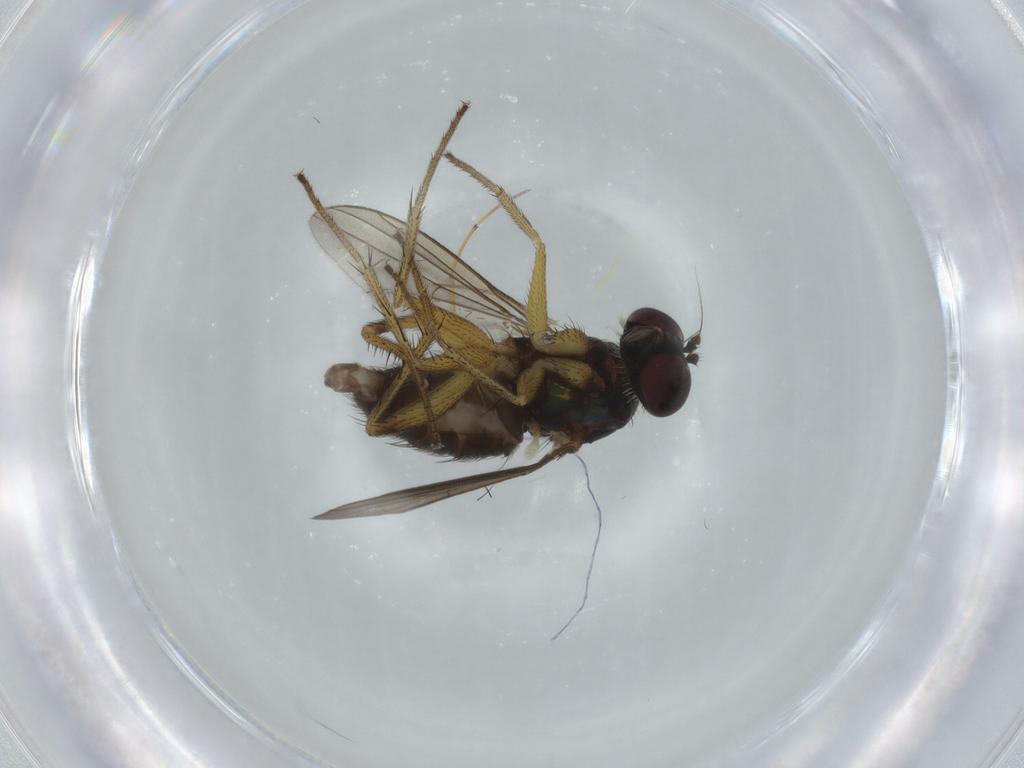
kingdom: Animalia
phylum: Arthropoda
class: Insecta
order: Diptera
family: Dolichopodidae
